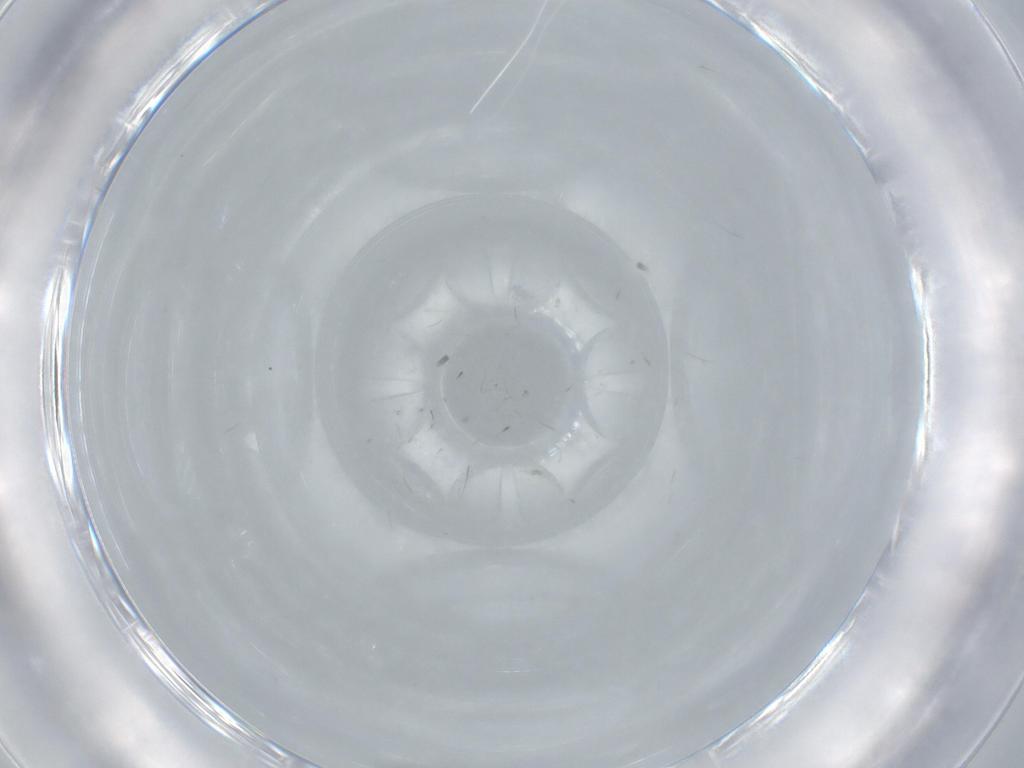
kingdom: Animalia
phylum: Arthropoda
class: Insecta
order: Diptera
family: Phoridae
